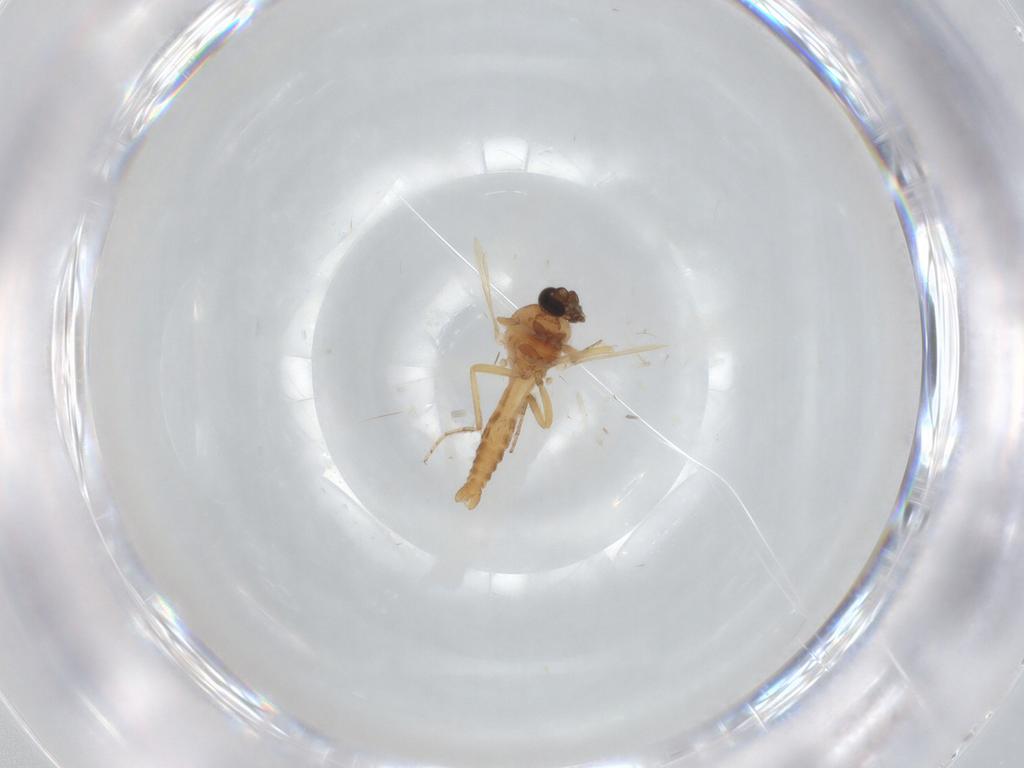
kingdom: Animalia
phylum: Arthropoda
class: Insecta
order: Diptera
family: Ceratopogonidae
